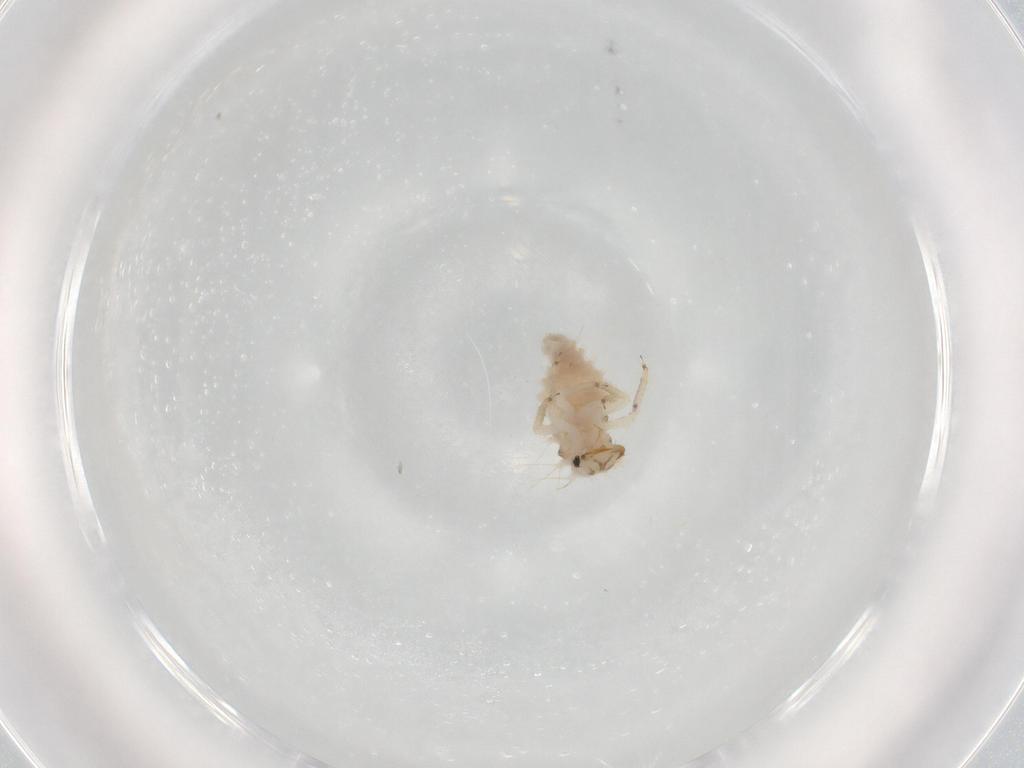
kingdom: Animalia
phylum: Arthropoda
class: Insecta
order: Neuroptera
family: Chrysopidae
